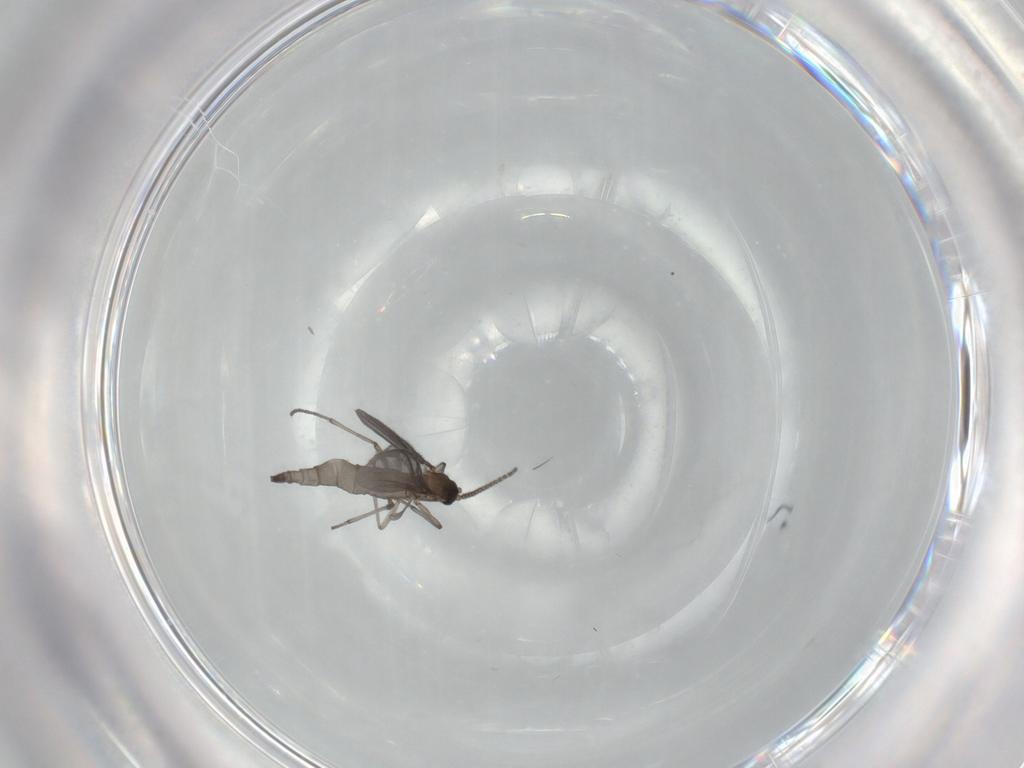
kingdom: Animalia
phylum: Arthropoda
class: Insecta
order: Diptera
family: Sciaridae
